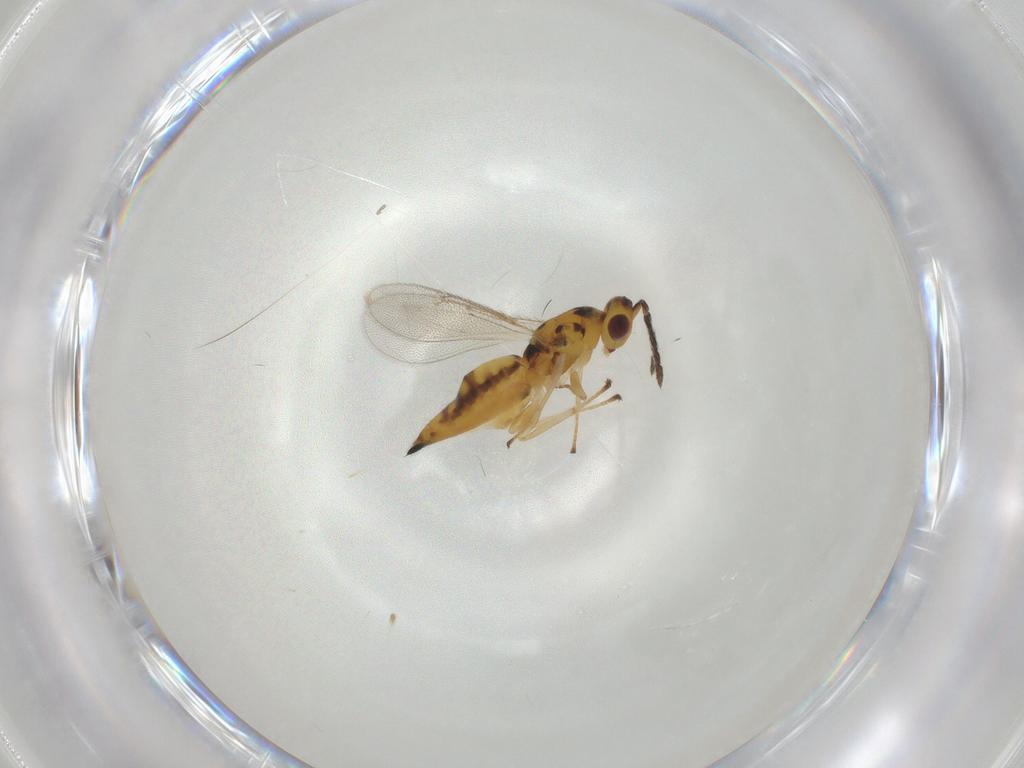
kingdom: Animalia
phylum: Arthropoda
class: Insecta
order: Hymenoptera
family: Eulophidae
